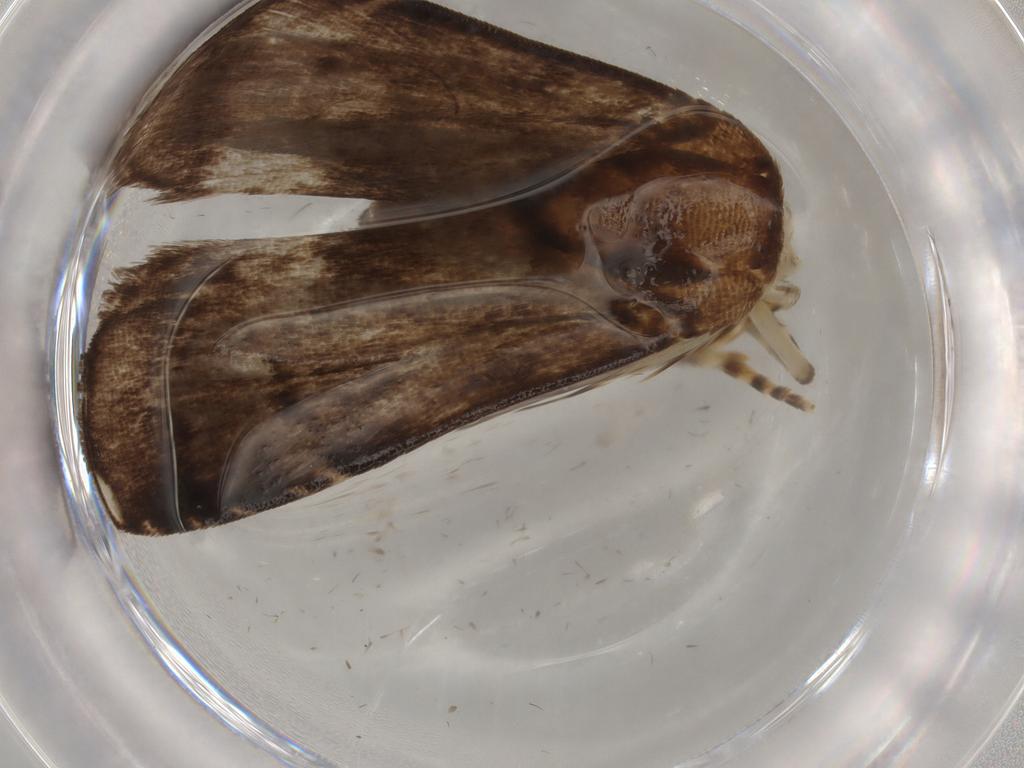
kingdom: Animalia
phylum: Arthropoda
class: Insecta
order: Lepidoptera
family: Immidae
